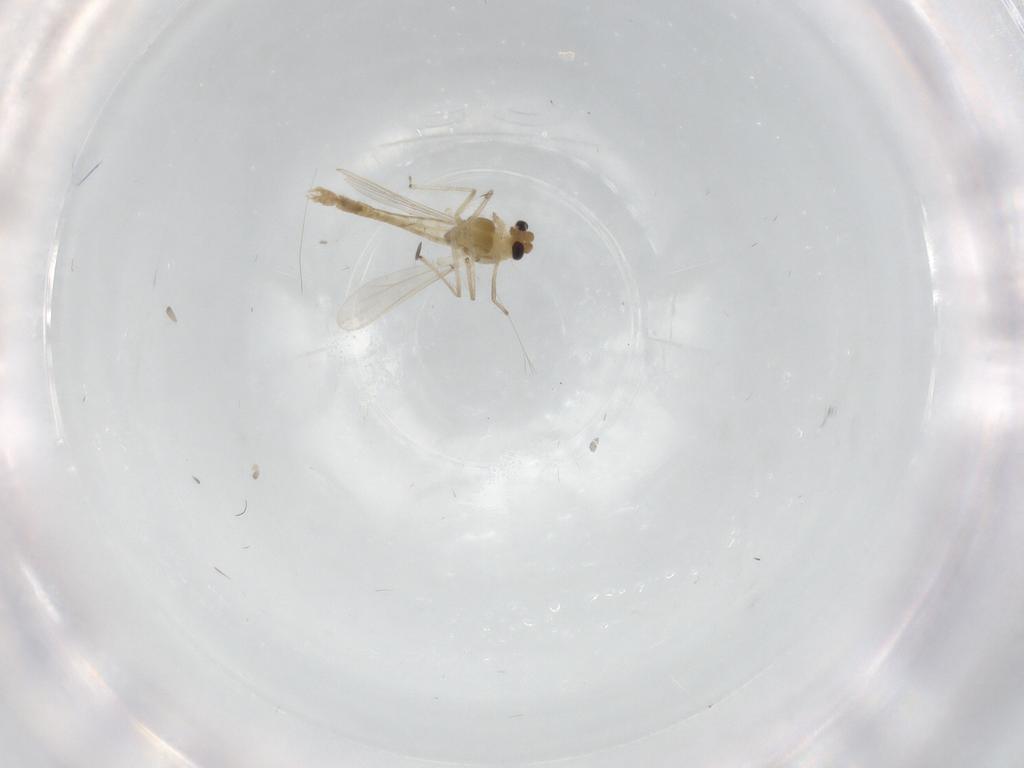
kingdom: Animalia
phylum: Arthropoda
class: Insecta
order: Diptera
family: Chironomidae
